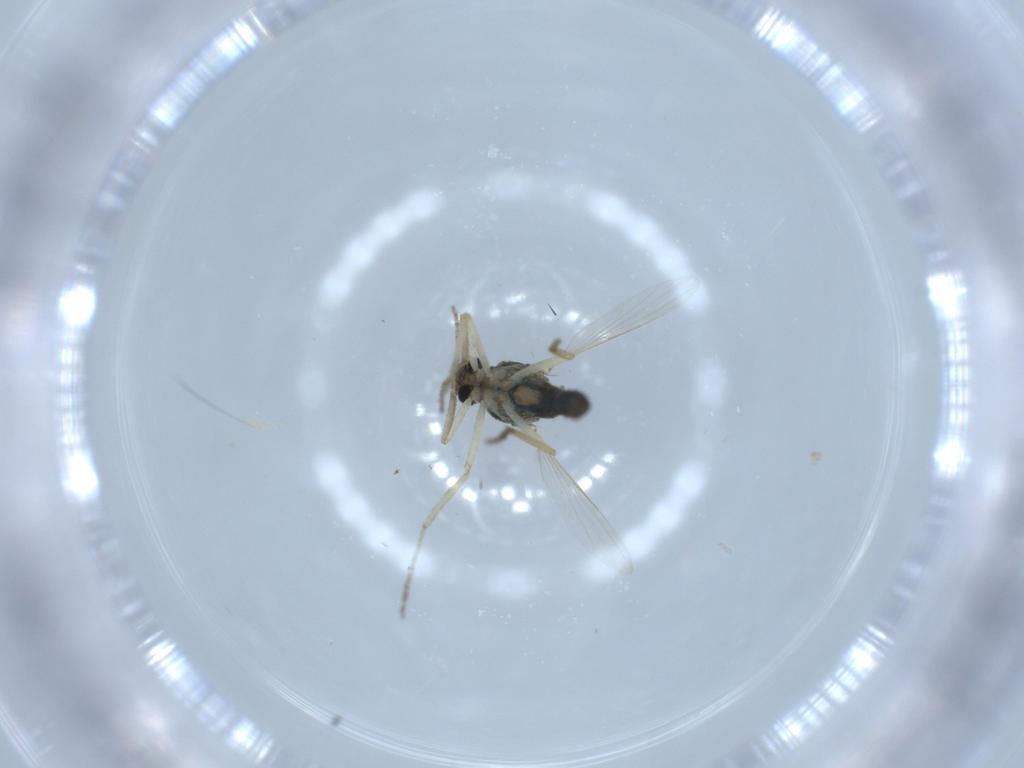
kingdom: Animalia
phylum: Arthropoda
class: Insecta
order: Diptera
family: Ceratopogonidae
